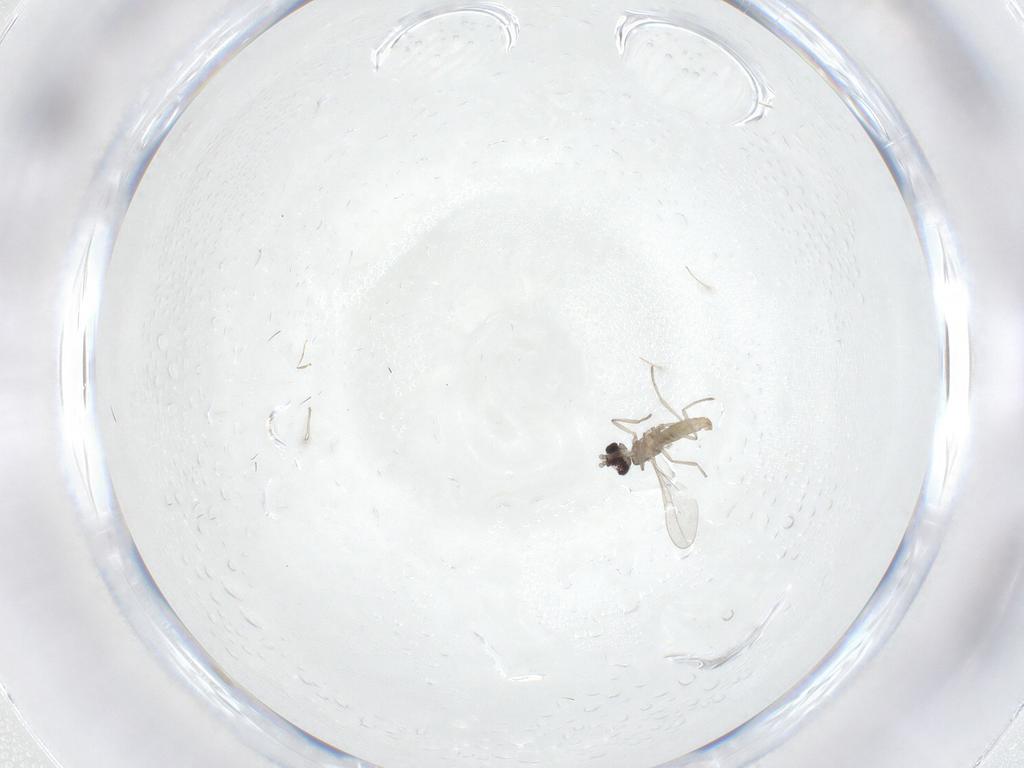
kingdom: Animalia
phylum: Arthropoda
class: Insecta
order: Diptera
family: Cecidomyiidae
